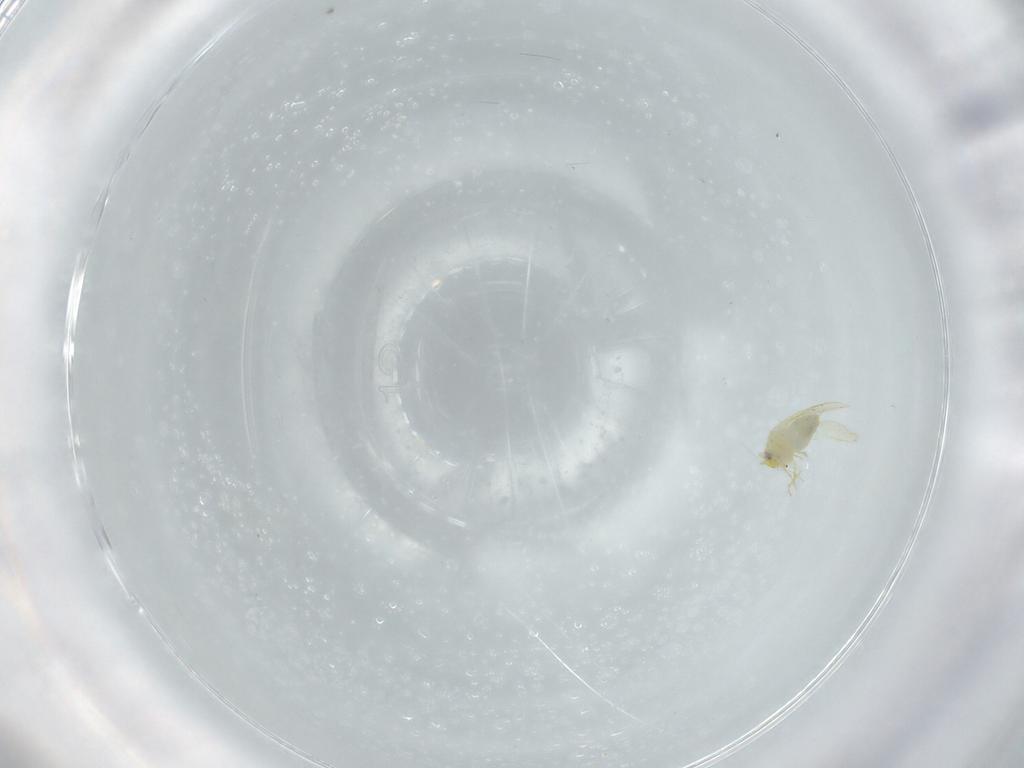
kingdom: Animalia
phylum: Arthropoda
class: Insecta
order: Hemiptera
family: Aleyrodidae
